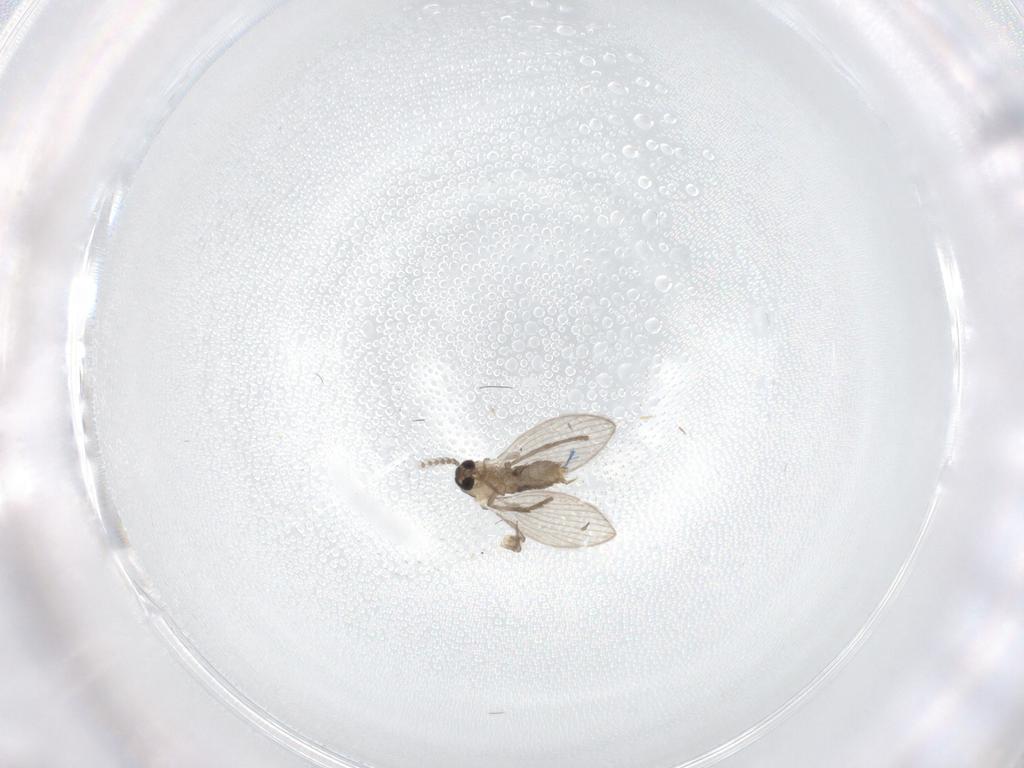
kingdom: Animalia
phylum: Arthropoda
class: Insecta
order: Diptera
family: Psychodidae
